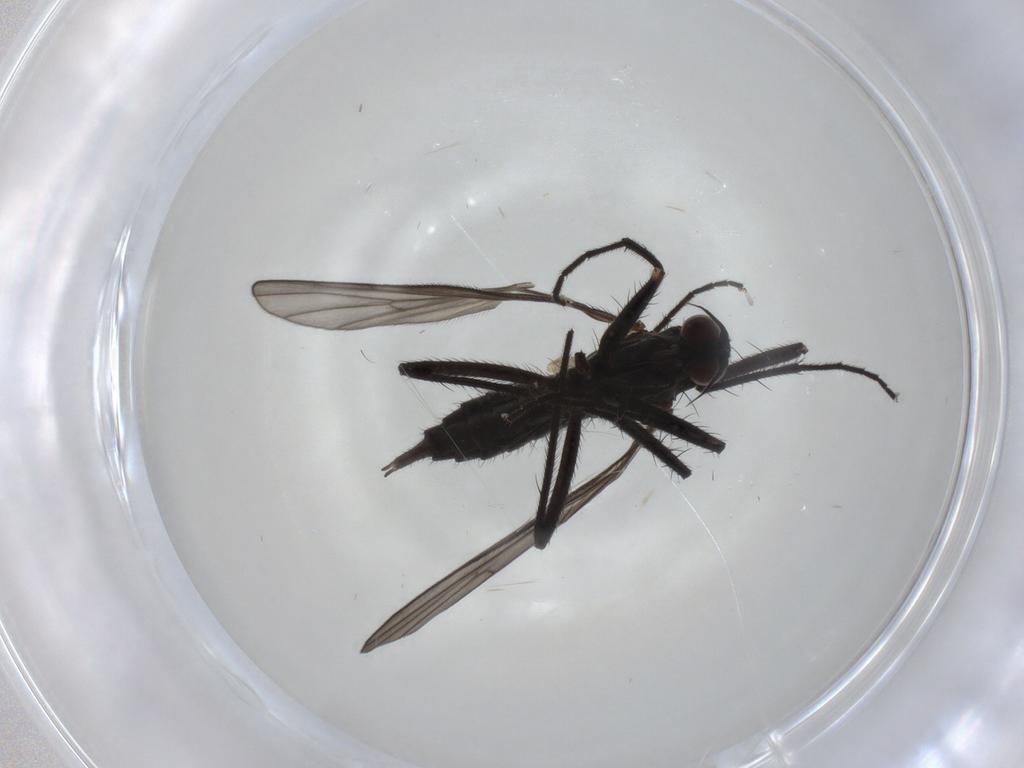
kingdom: Animalia
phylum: Arthropoda
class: Insecta
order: Diptera
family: Empididae
